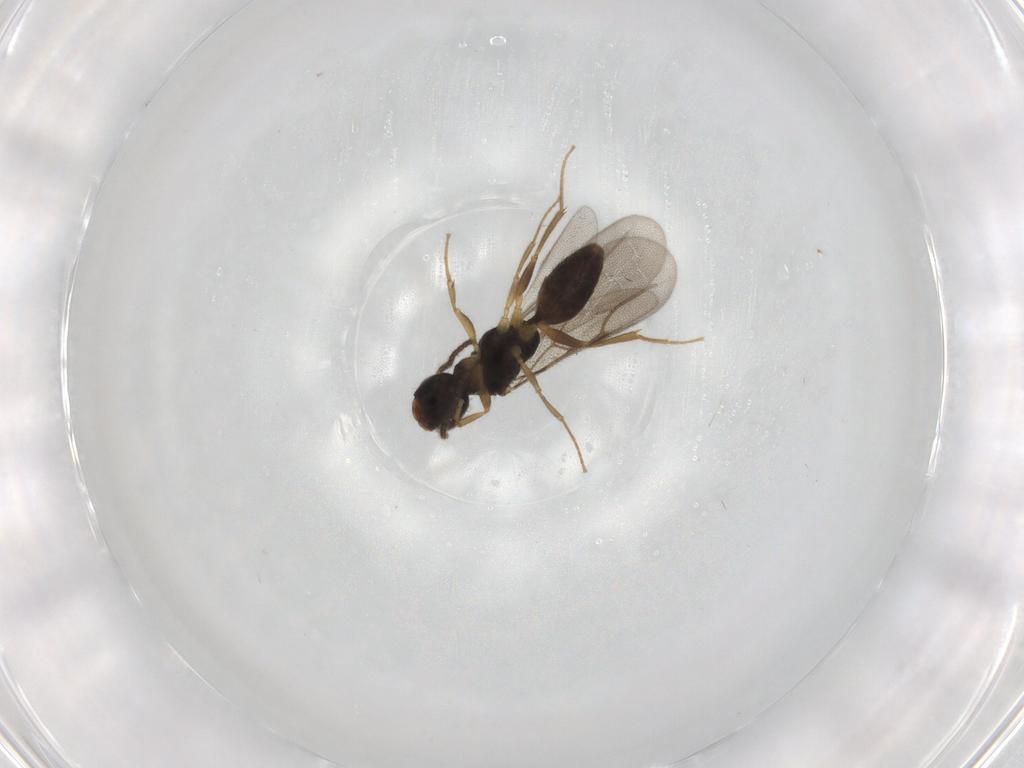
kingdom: Animalia
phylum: Arthropoda
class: Insecta
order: Hymenoptera
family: Bethylidae
